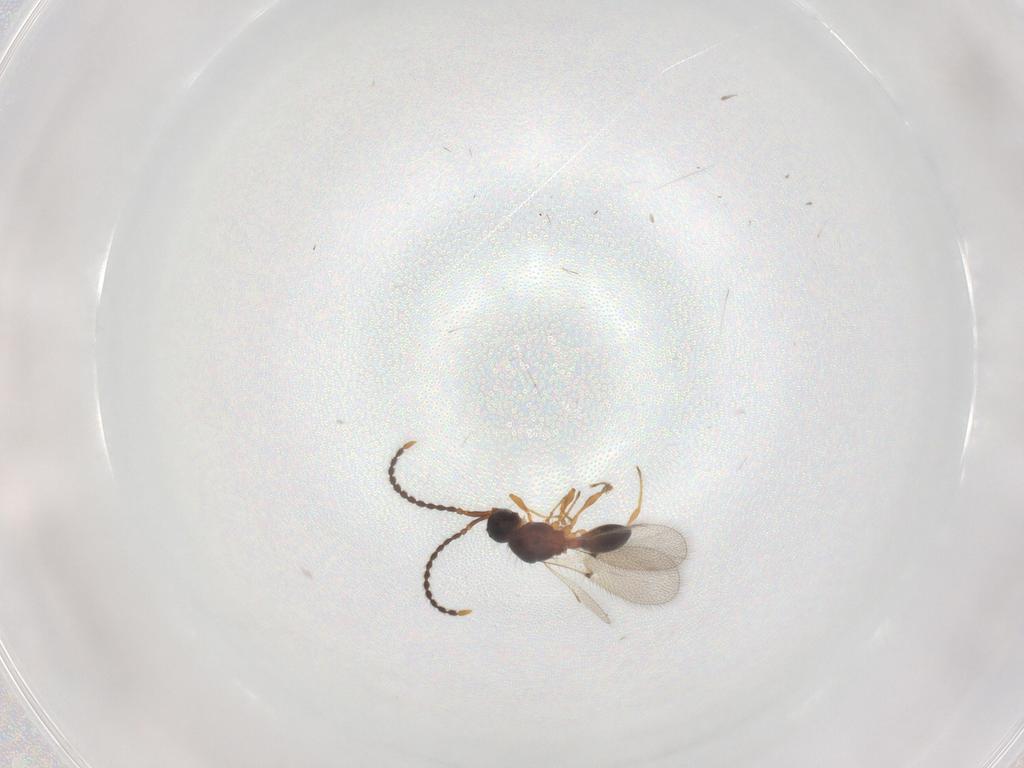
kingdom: Animalia
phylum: Arthropoda
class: Insecta
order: Hymenoptera
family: Diapriidae
